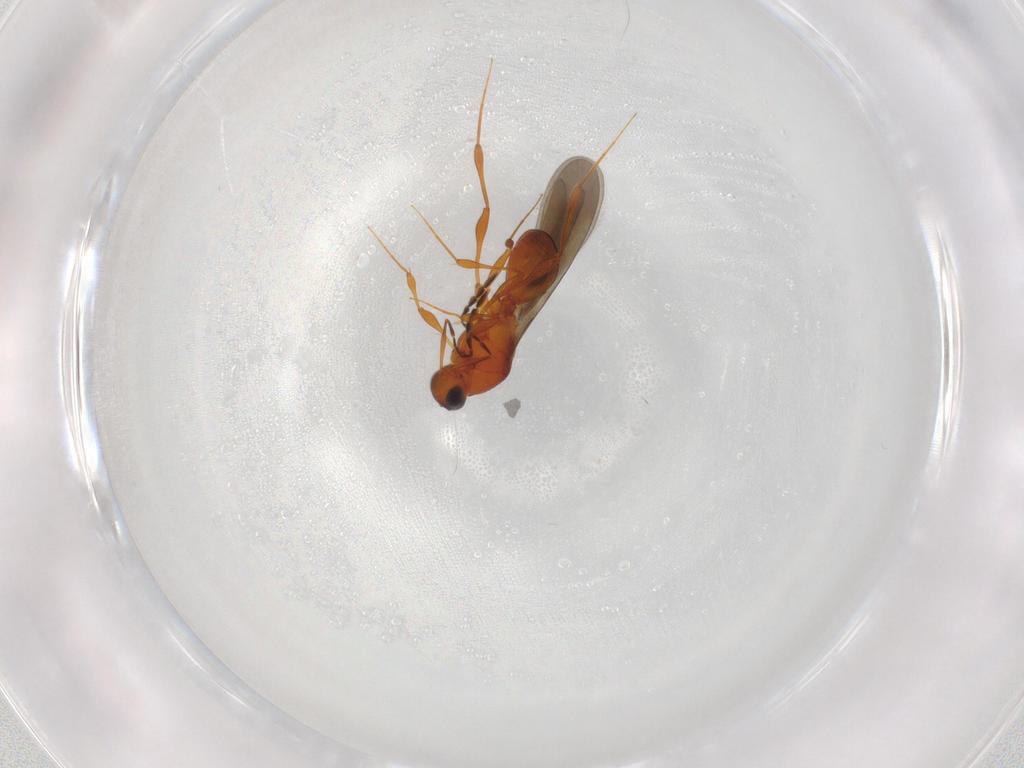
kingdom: Animalia
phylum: Arthropoda
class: Insecta
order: Hymenoptera
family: Platygastridae
